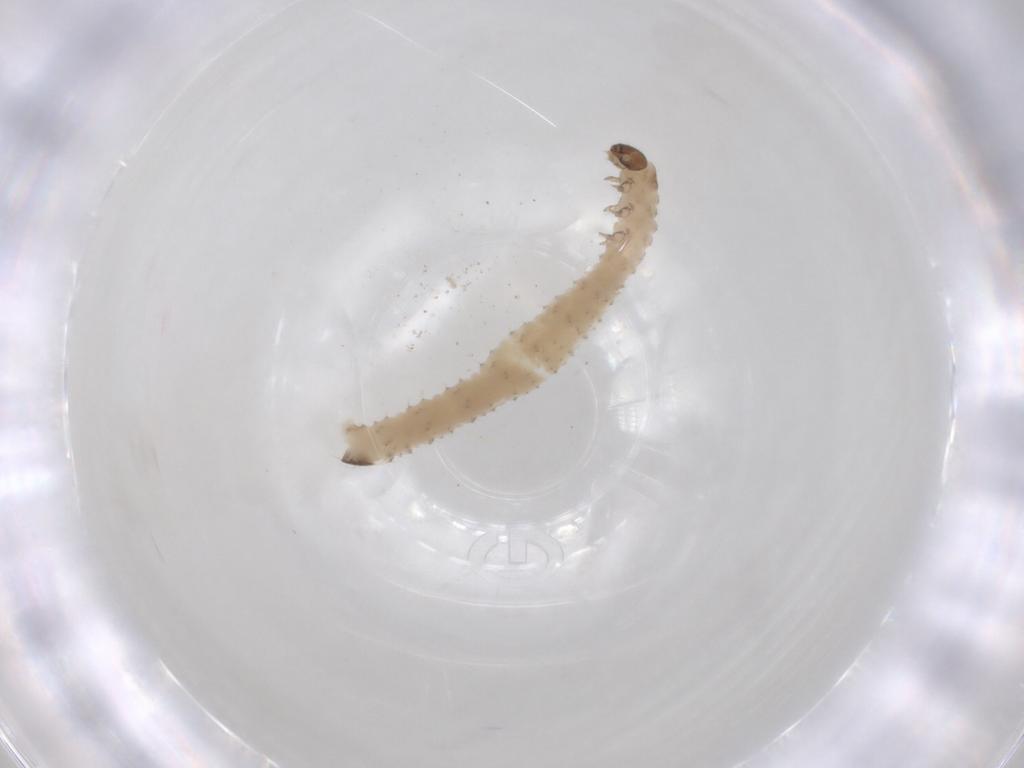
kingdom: Animalia
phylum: Arthropoda
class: Insecta
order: Coleoptera
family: Chrysomelidae
